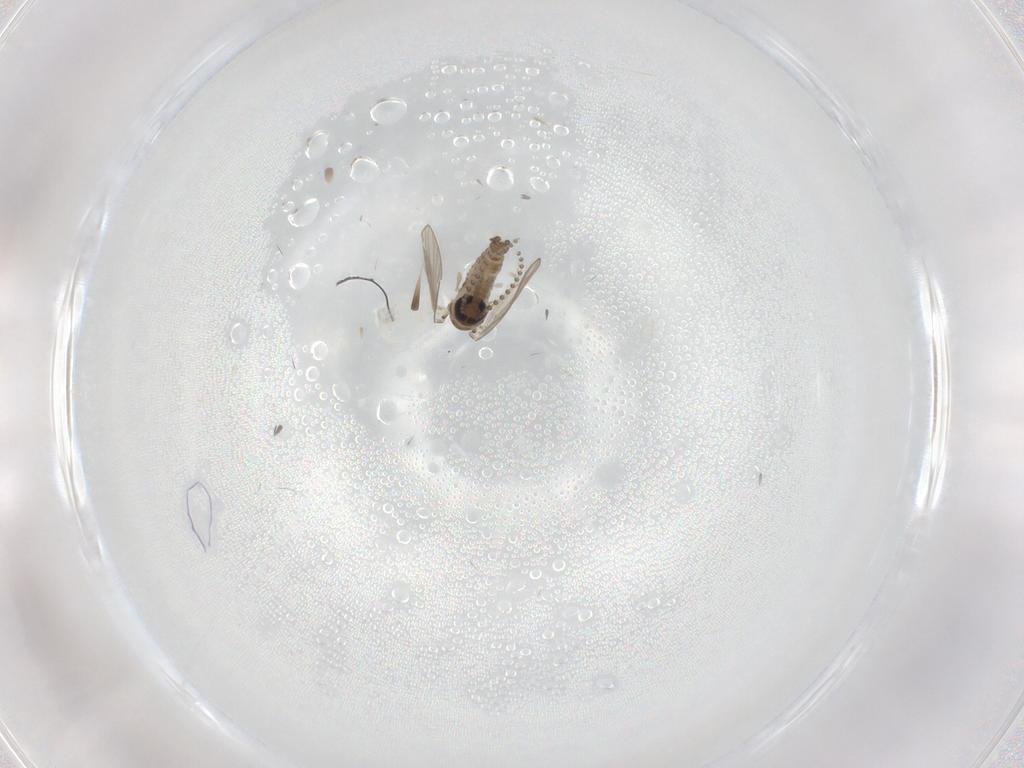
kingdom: Animalia
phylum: Arthropoda
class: Insecta
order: Diptera
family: Psychodidae
